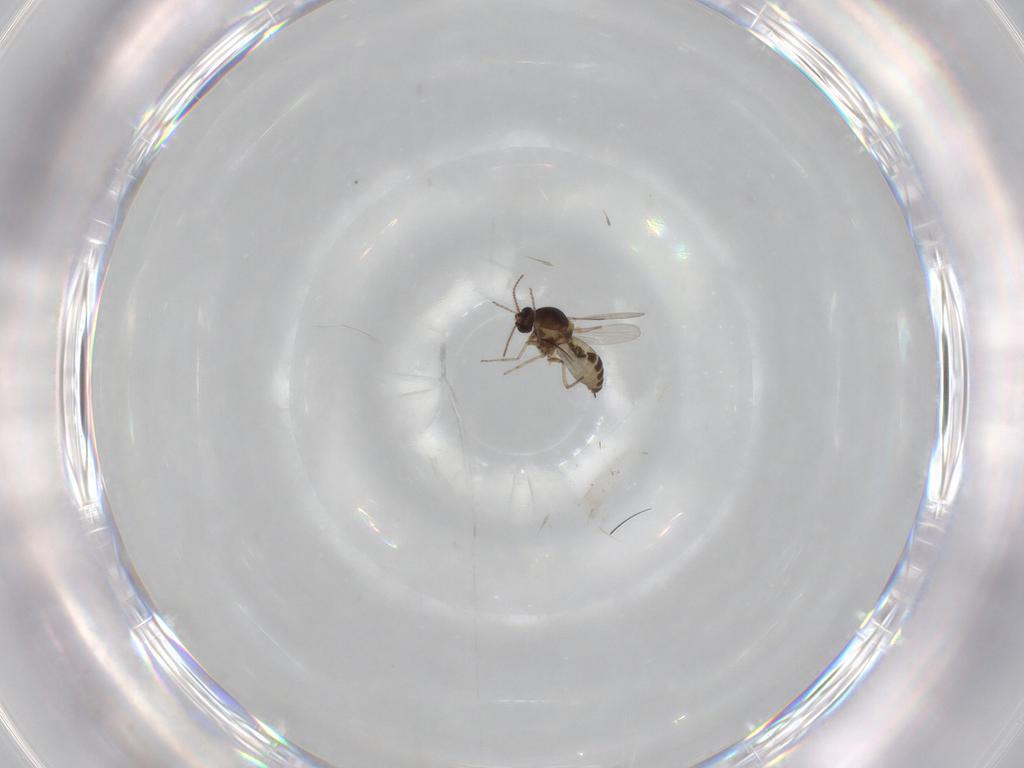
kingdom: Animalia
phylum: Arthropoda
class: Insecta
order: Diptera
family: Ceratopogonidae
